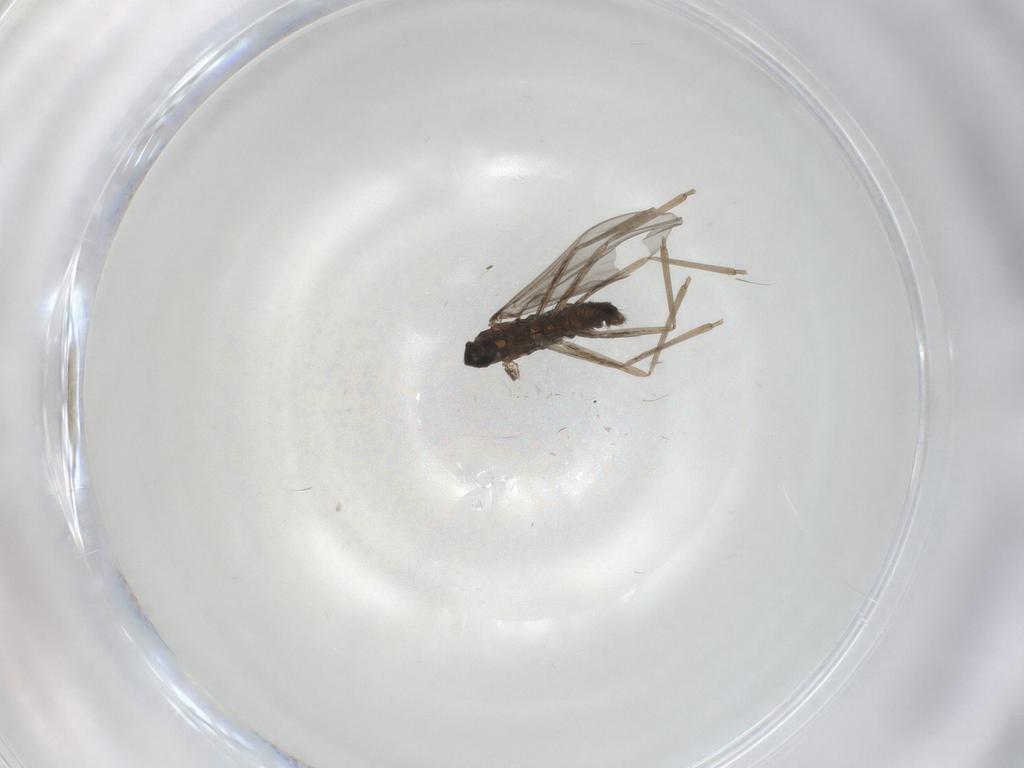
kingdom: Animalia
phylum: Arthropoda
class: Insecta
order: Diptera
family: Cecidomyiidae
